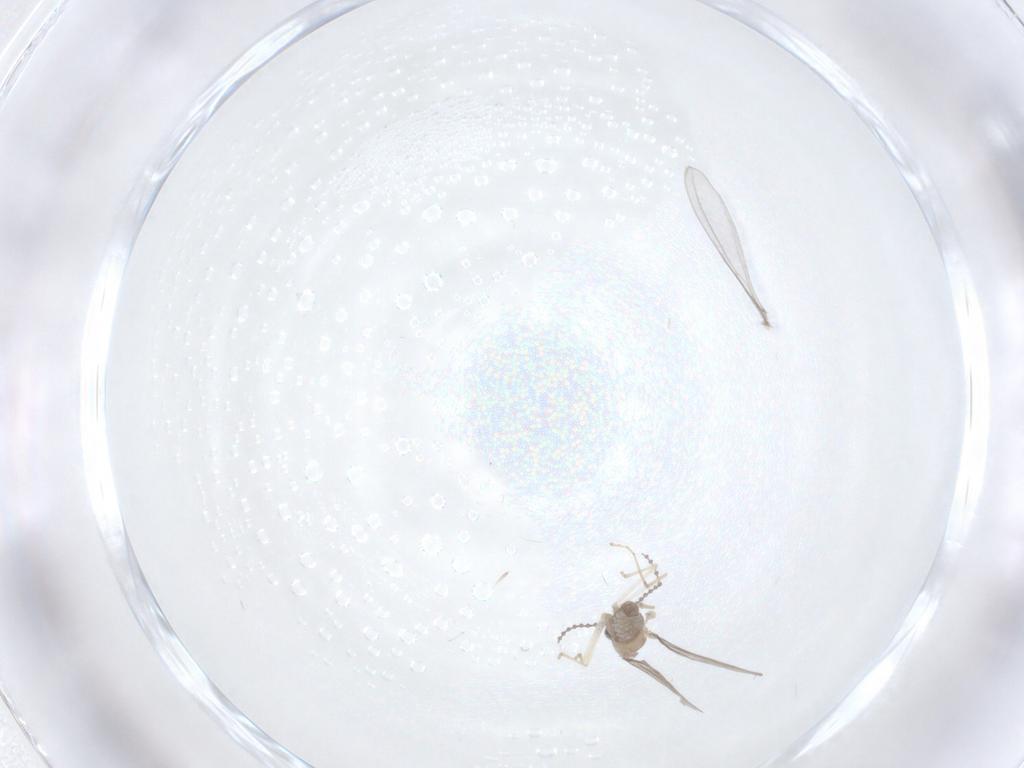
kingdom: Animalia
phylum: Arthropoda
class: Insecta
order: Diptera
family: Cecidomyiidae
